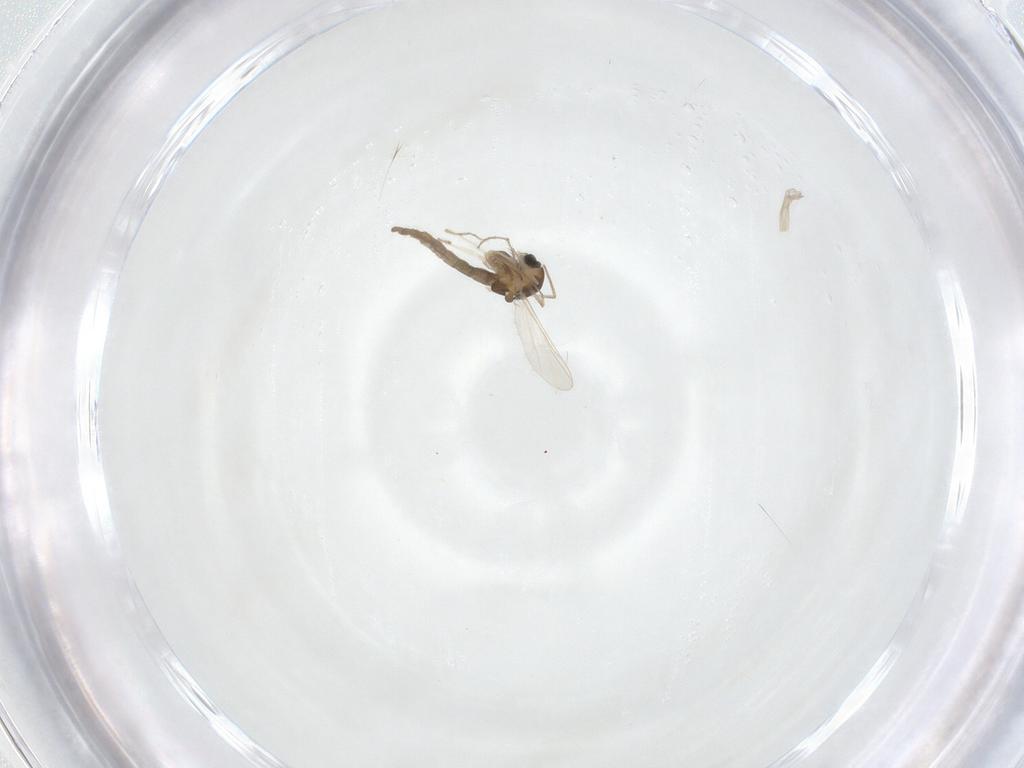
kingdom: Animalia
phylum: Arthropoda
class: Insecta
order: Diptera
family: Chironomidae
